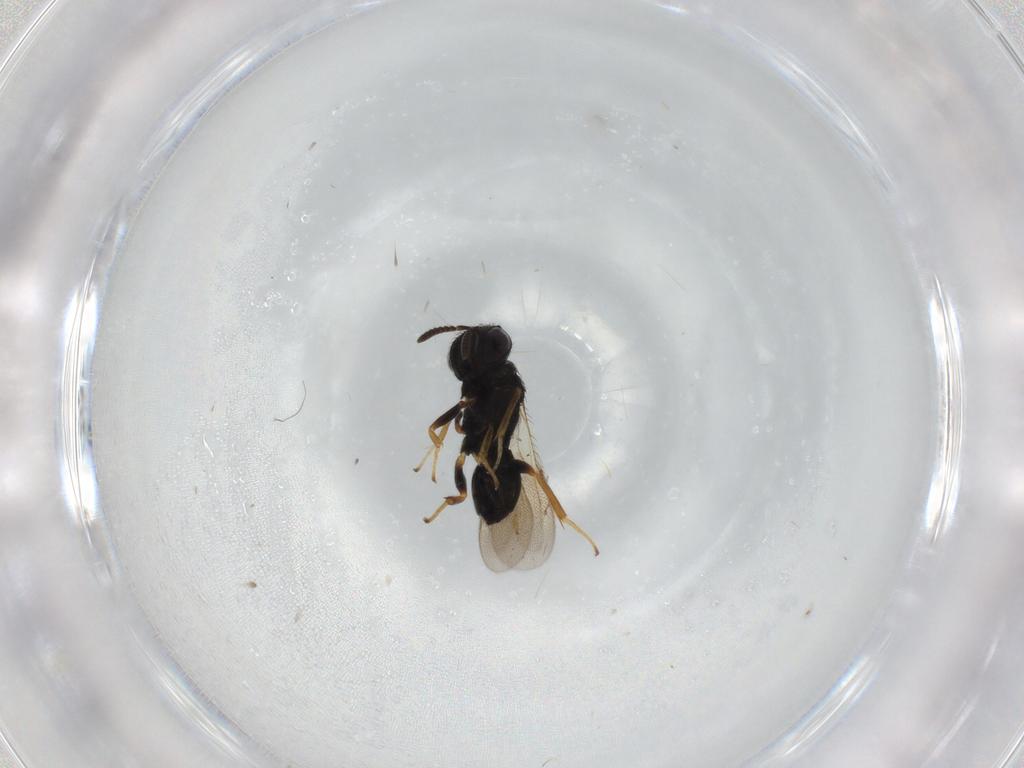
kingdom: Animalia
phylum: Arthropoda
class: Insecta
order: Hymenoptera
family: Pteromalidae
